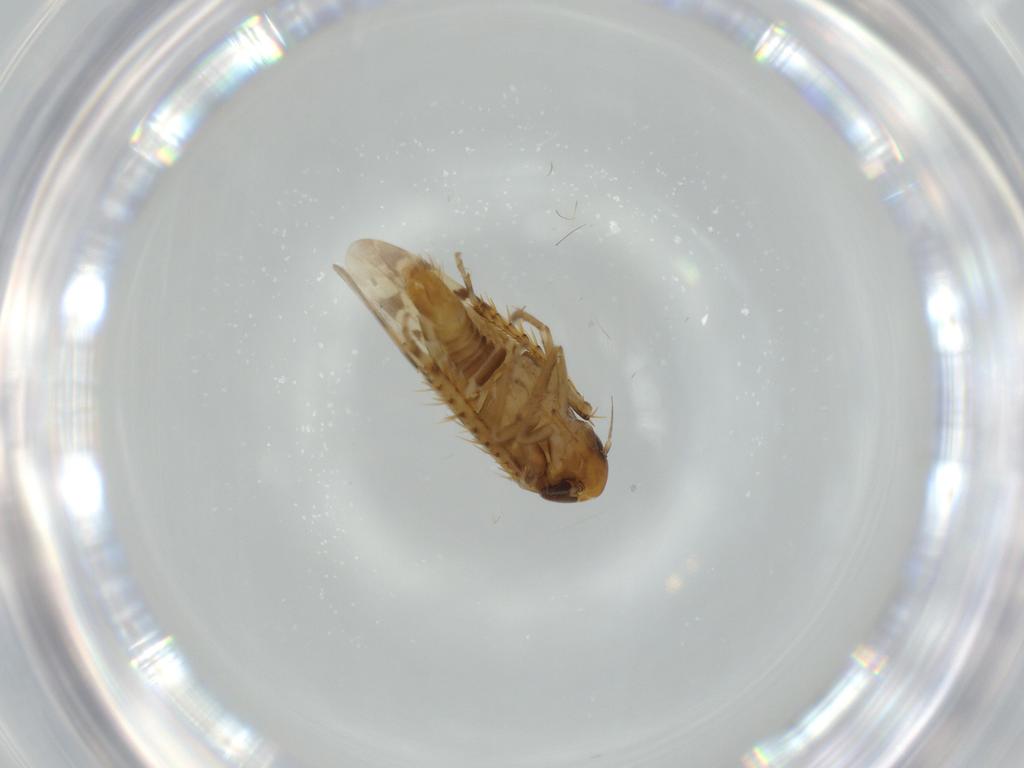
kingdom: Animalia
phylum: Arthropoda
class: Insecta
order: Hemiptera
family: Cicadellidae
